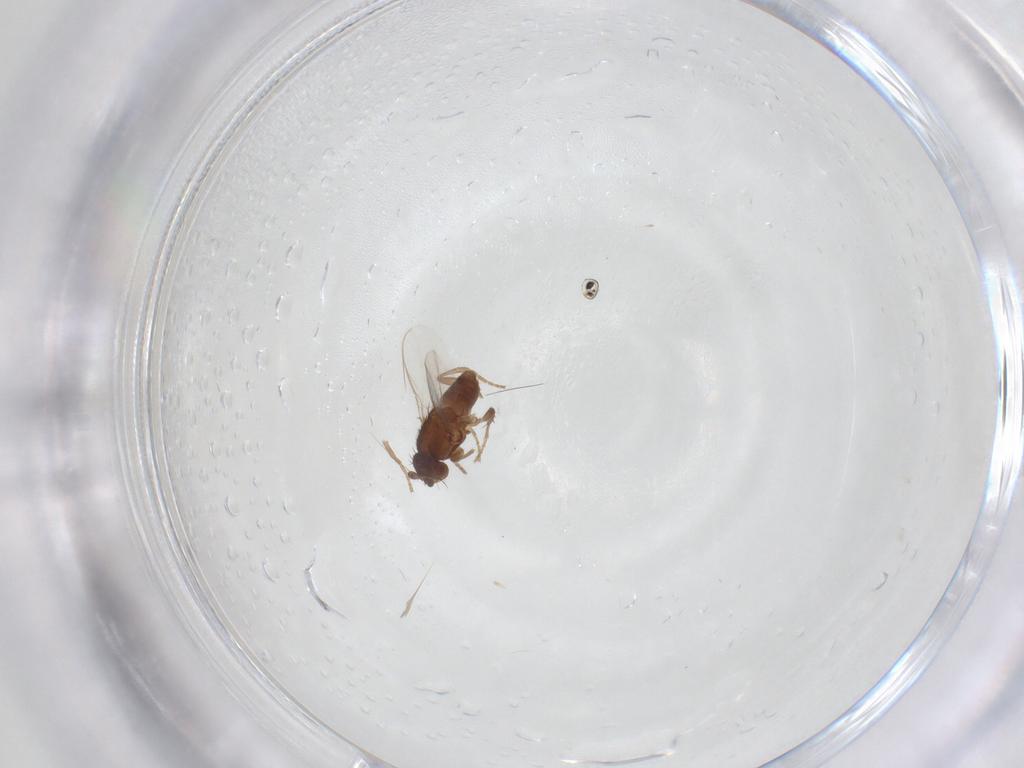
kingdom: Animalia
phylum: Arthropoda
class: Insecta
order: Diptera
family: Sphaeroceridae
